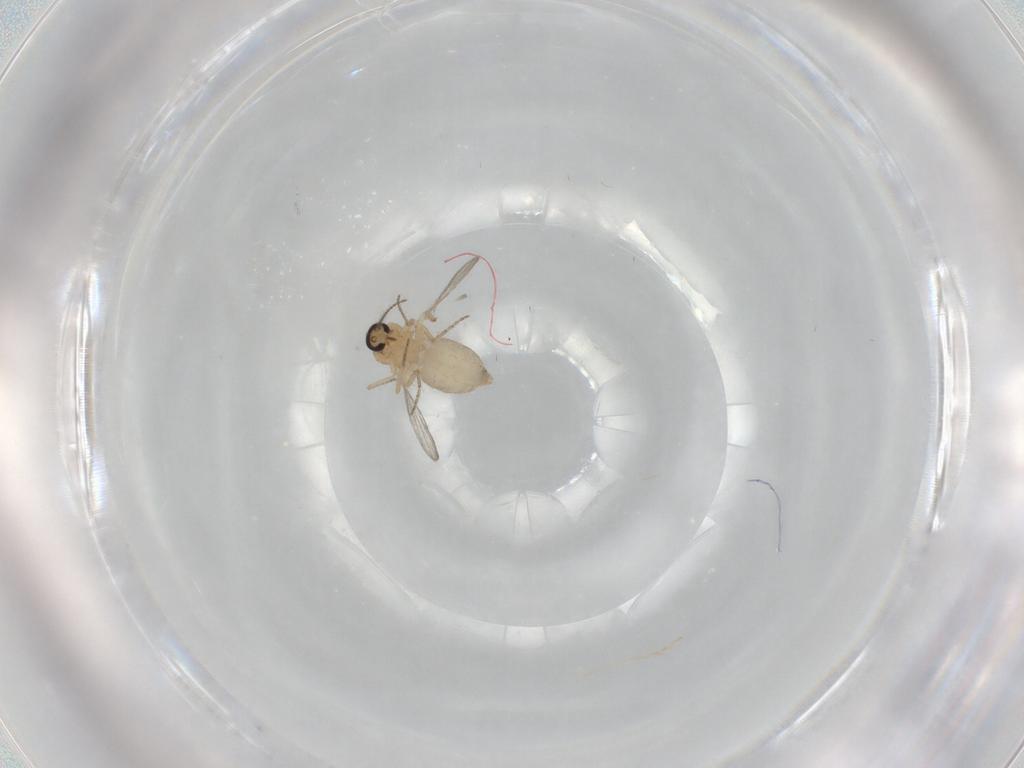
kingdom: Animalia
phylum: Arthropoda
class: Insecta
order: Diptera
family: Ceratopogonidae
